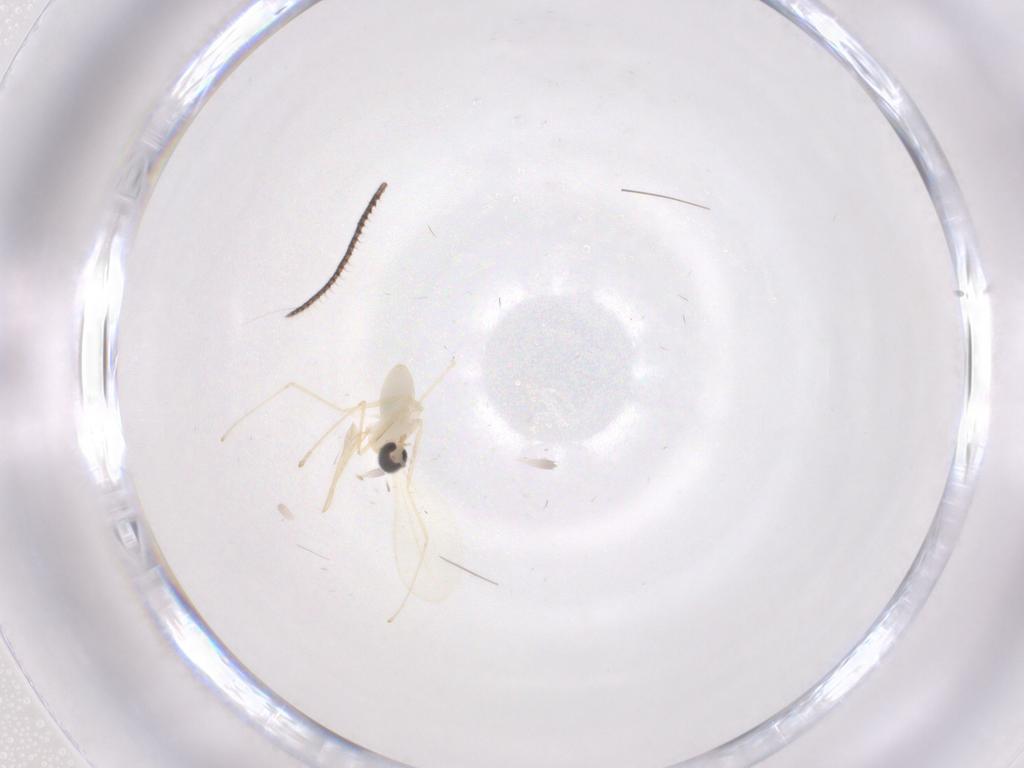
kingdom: Animalia
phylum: Arthropoda
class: Insecta
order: Diptera
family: Cecidomyiidae
